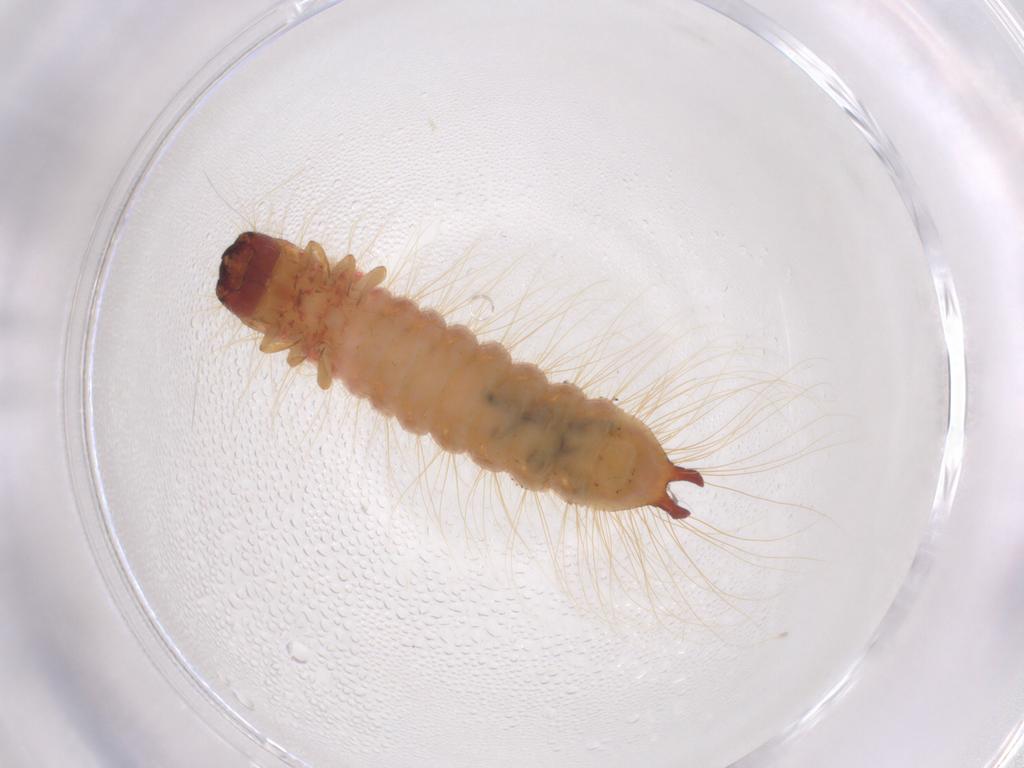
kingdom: Animalia
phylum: Arthropoda
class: Insecta
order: Coleoptera
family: Cleridae
